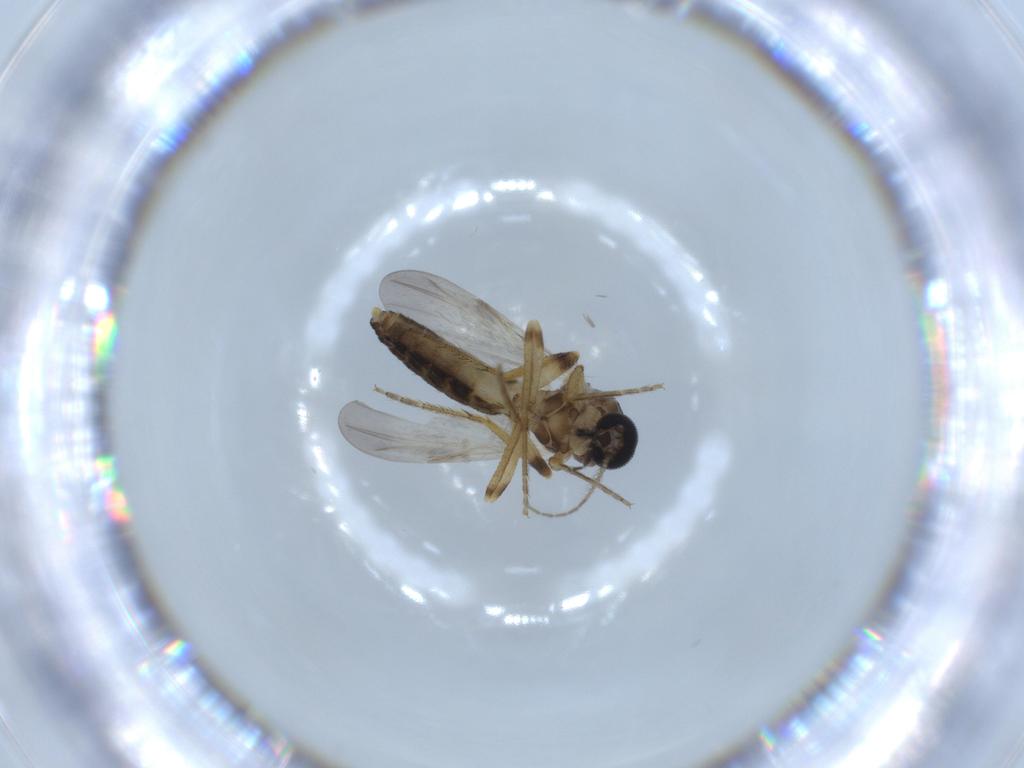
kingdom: Animalia
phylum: Arthropoda
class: Insecta
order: Diptera
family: Ceratopogonidae
